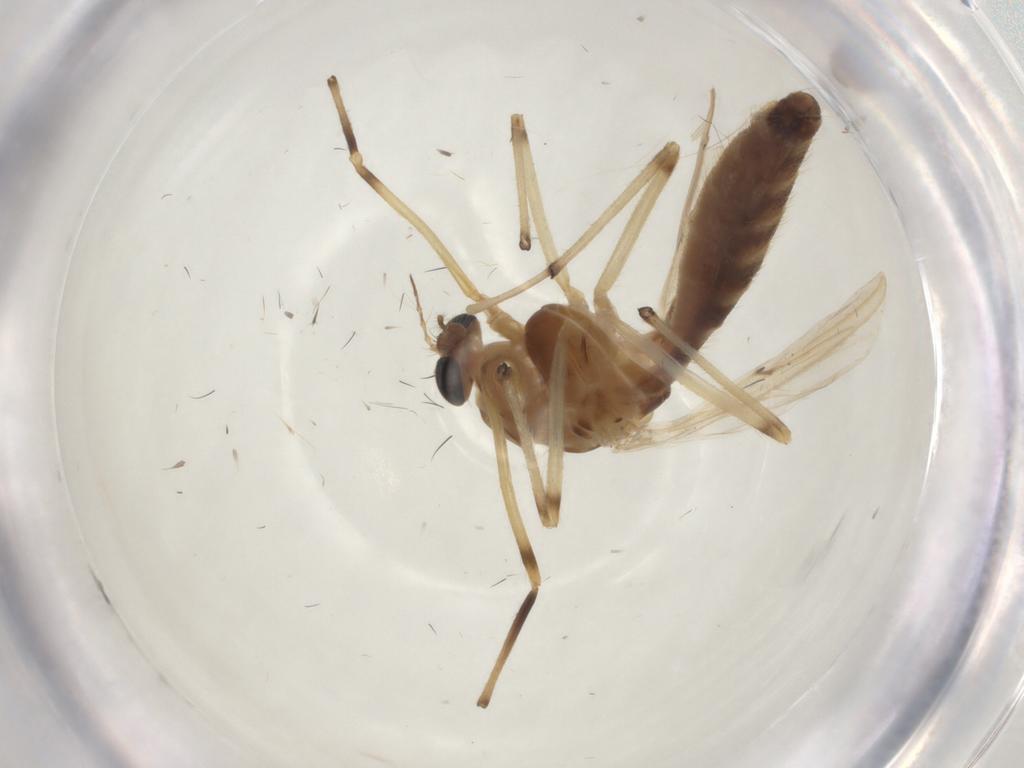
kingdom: Animalia
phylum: Arthropoda
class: Insecta
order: Diptera
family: Chironomidae
